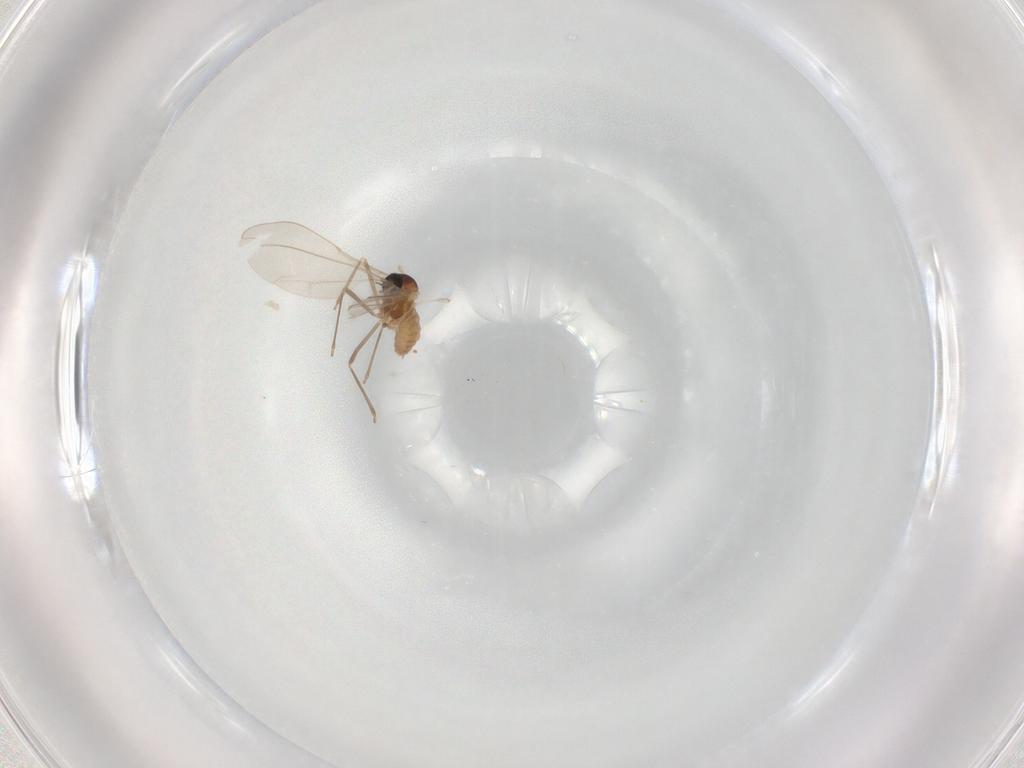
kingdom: Animalia
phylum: Arthropoda
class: Insecta
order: Diptera
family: Cecidomyiidae
